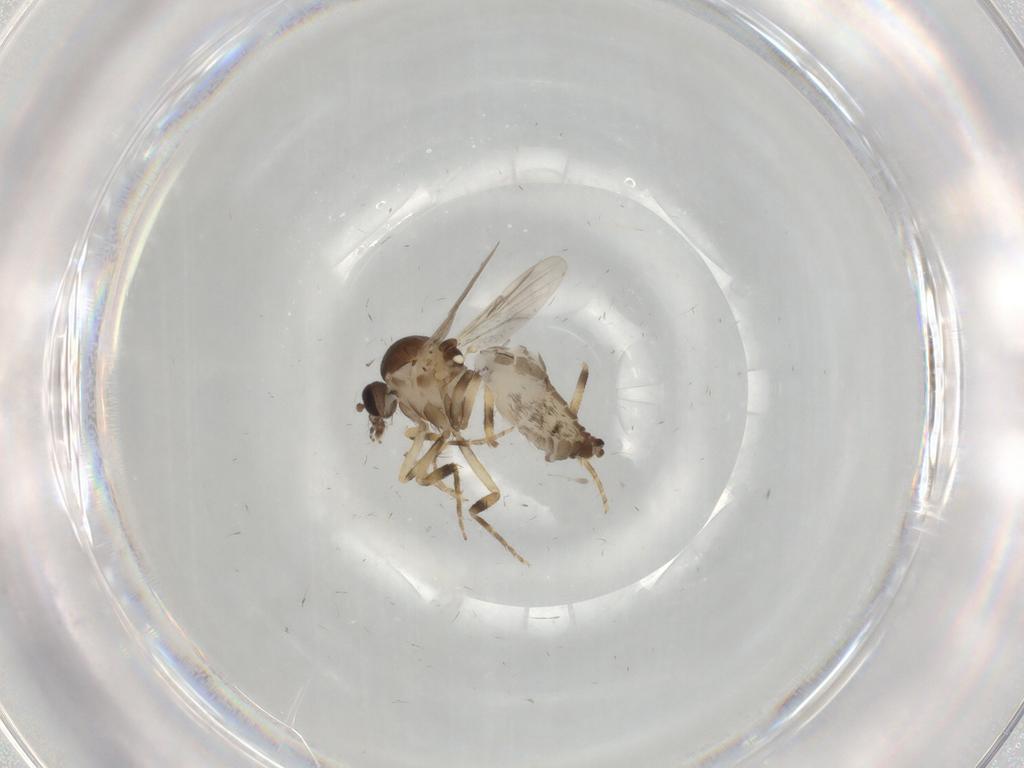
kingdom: Animalia
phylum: Arthropoda
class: Insecta
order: Diptera
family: Ceratopogonidae
